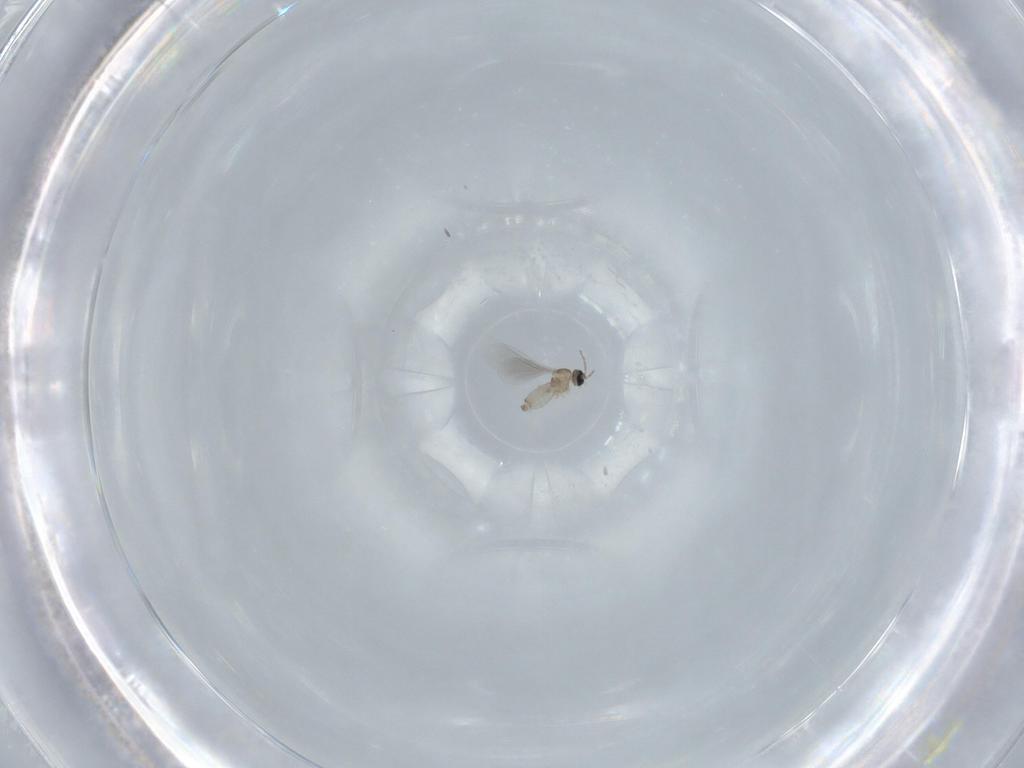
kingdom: Animalia
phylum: Arthropoda
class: Insecta
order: Diptera
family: Cecidomyiidae
